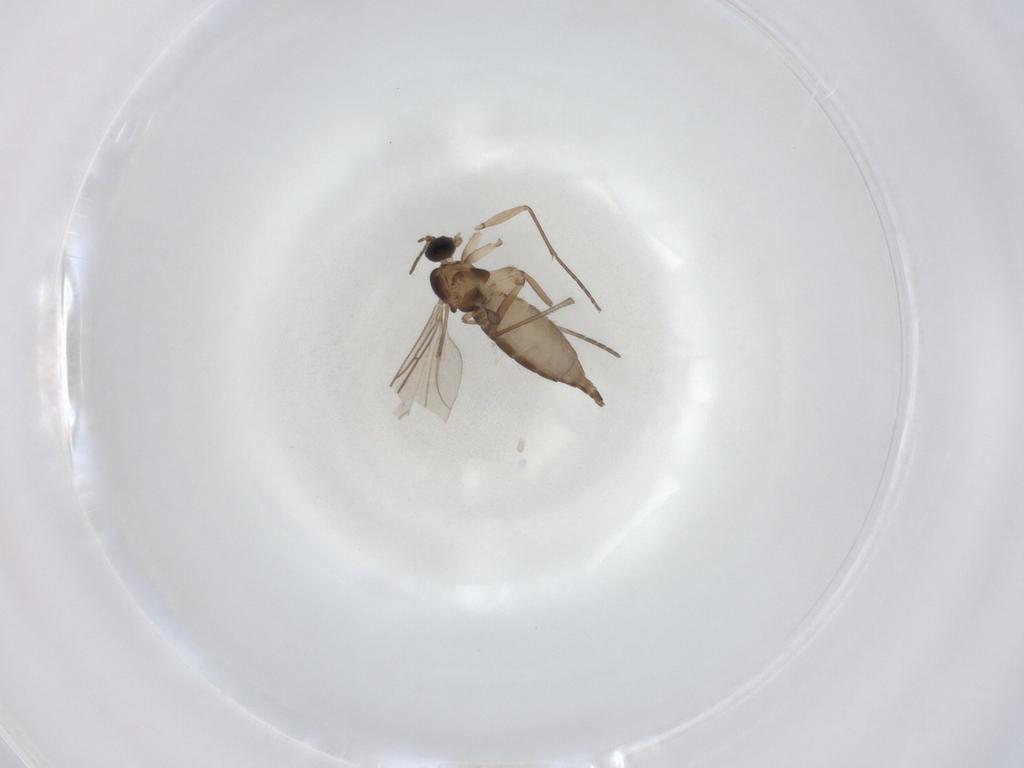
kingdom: Animalia
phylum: Arthropoda
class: Insecta
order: Diptera
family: Sciaridae
